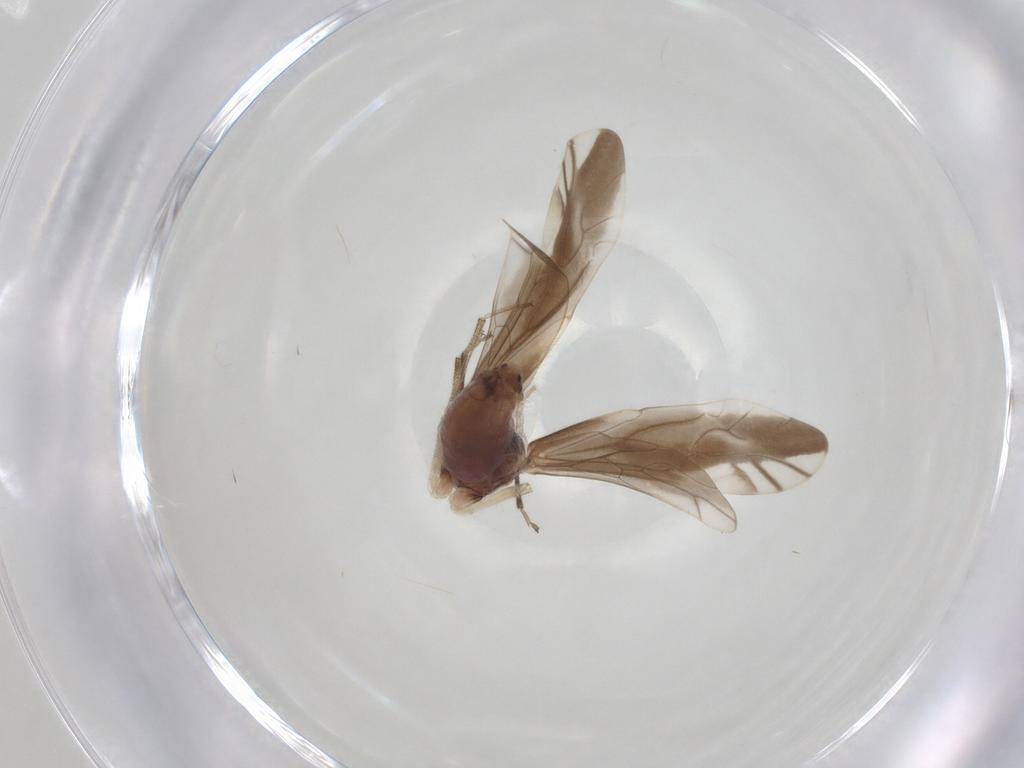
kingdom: Animalia
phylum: Arthropoda
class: Insecta
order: Psocodea
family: Caeciliusidae
